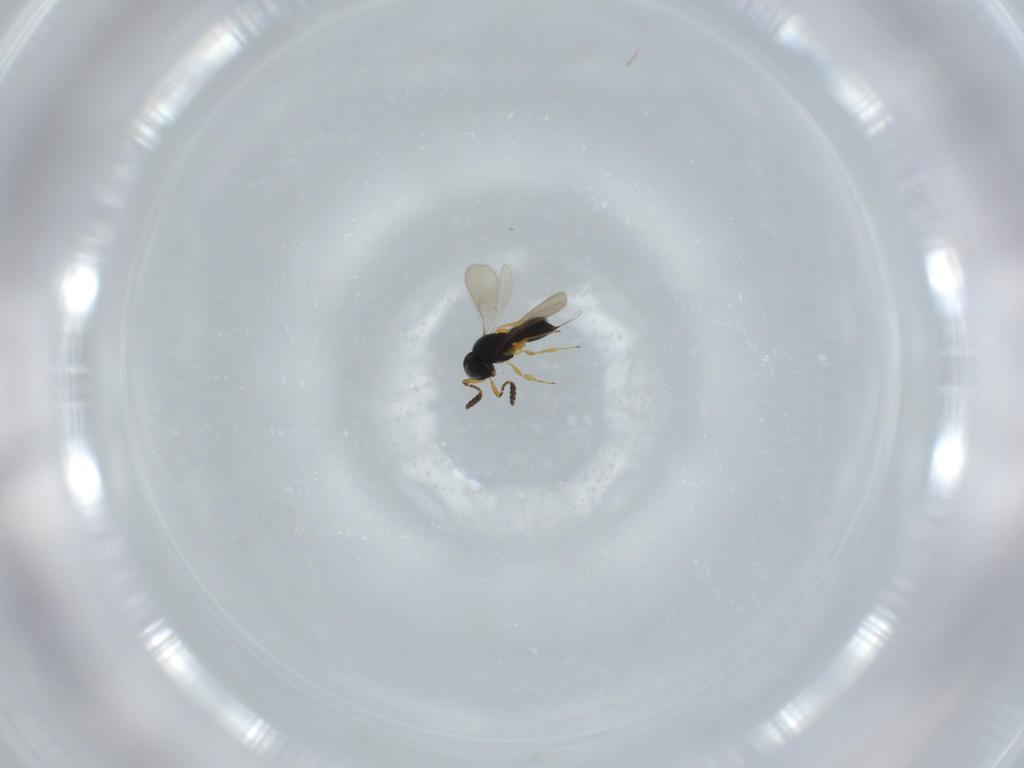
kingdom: Animalia
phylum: Arthropoda
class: Insecta
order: Hymenoptera
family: Scelionidae
